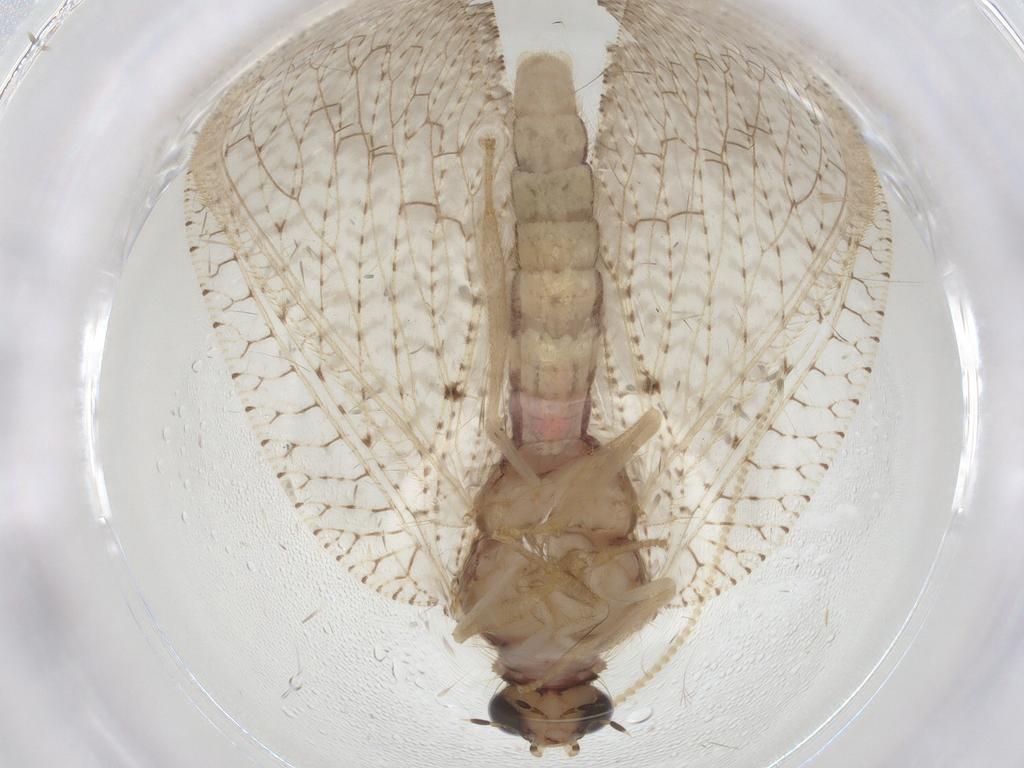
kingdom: Animalia
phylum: Arthropoda
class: Insecta
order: Neuroptera
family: Hemerobiidae
